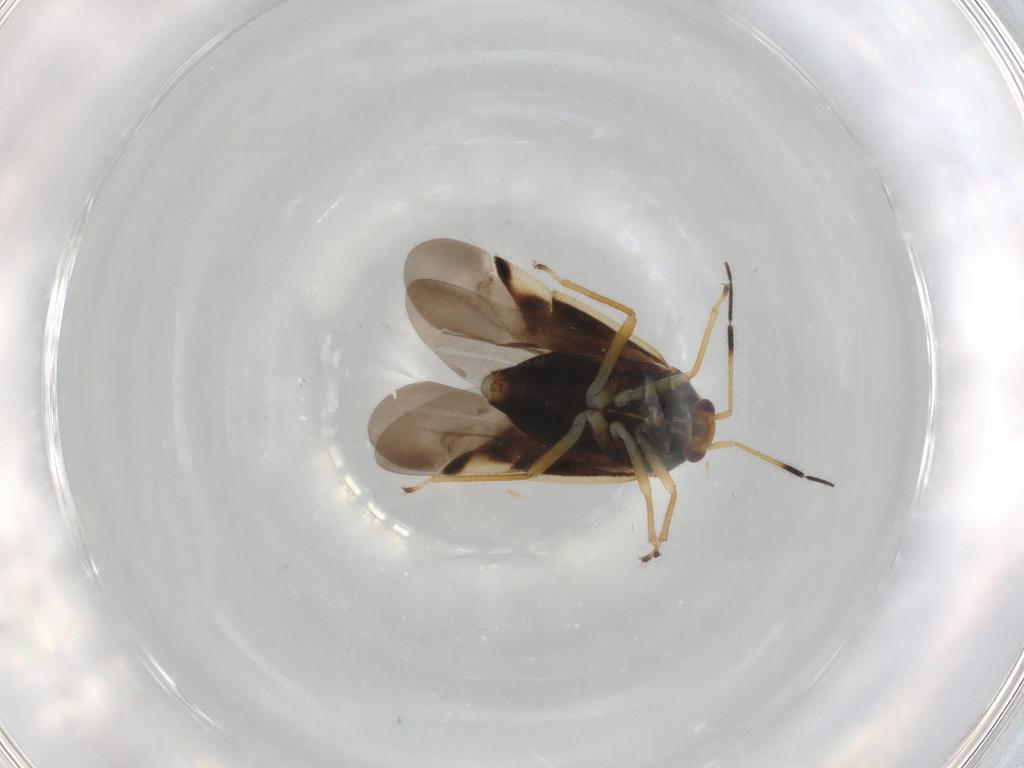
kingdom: Animalia
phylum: Arthropoda
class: Insecta
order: Hemiptera
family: Miridae
